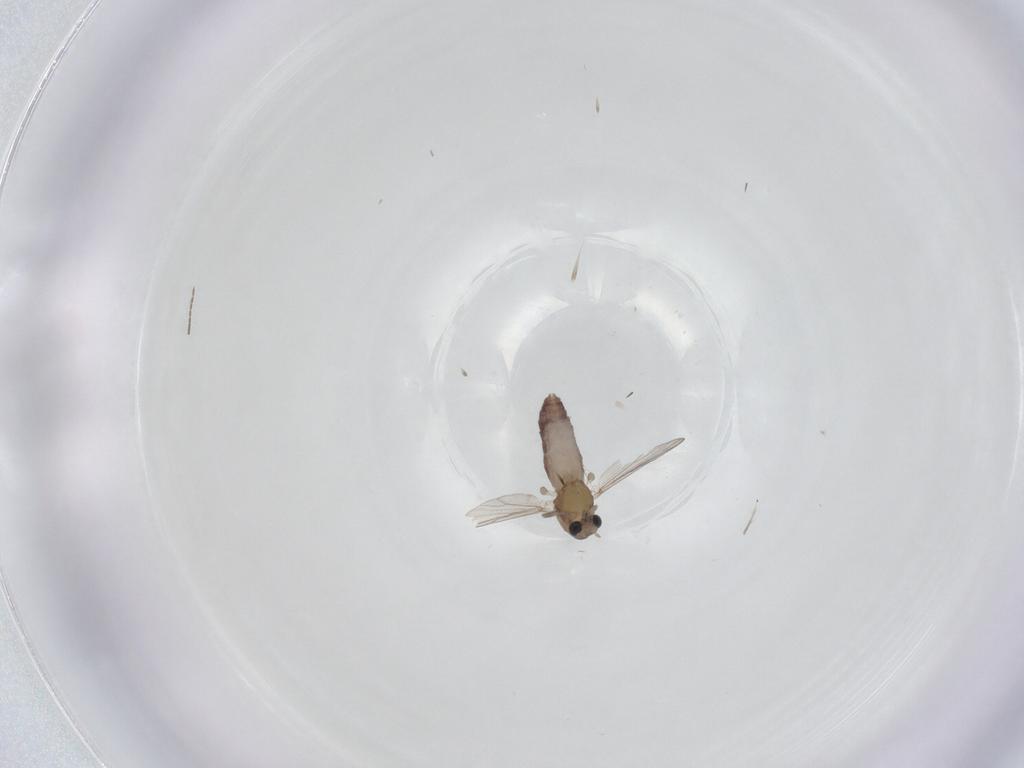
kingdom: Animalia
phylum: Arthropoda
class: Insecta
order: Diptera
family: Chironomidae
